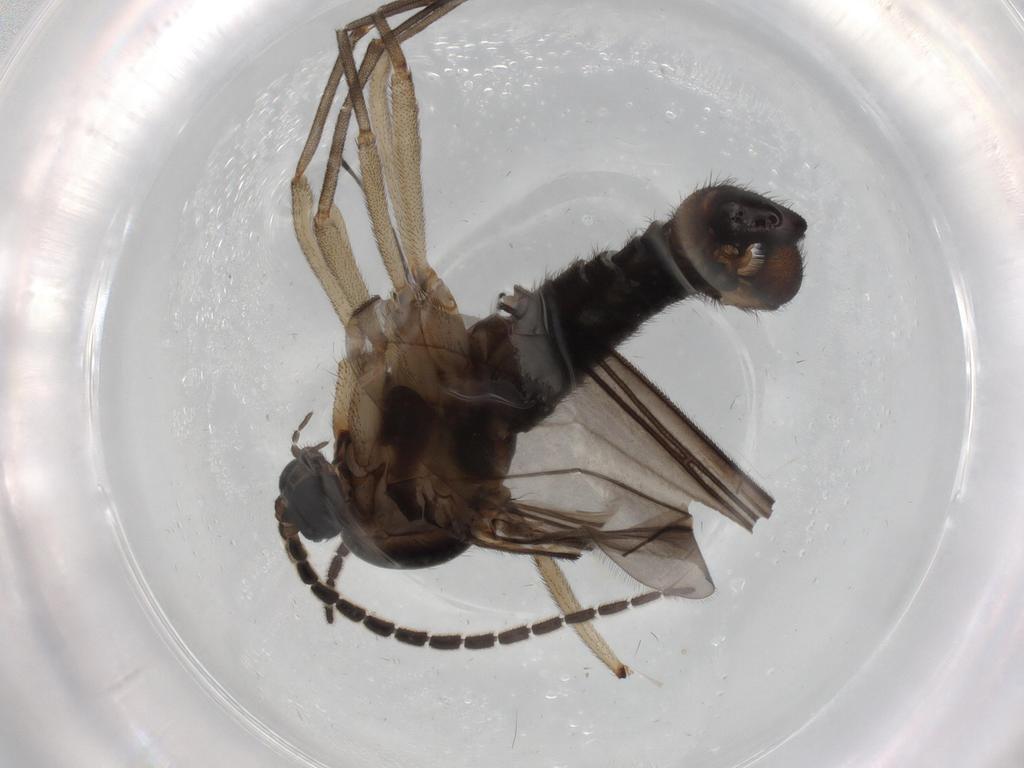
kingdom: Animalia
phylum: Arthropoda
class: Insecta
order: Diptera
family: Sciaridae
